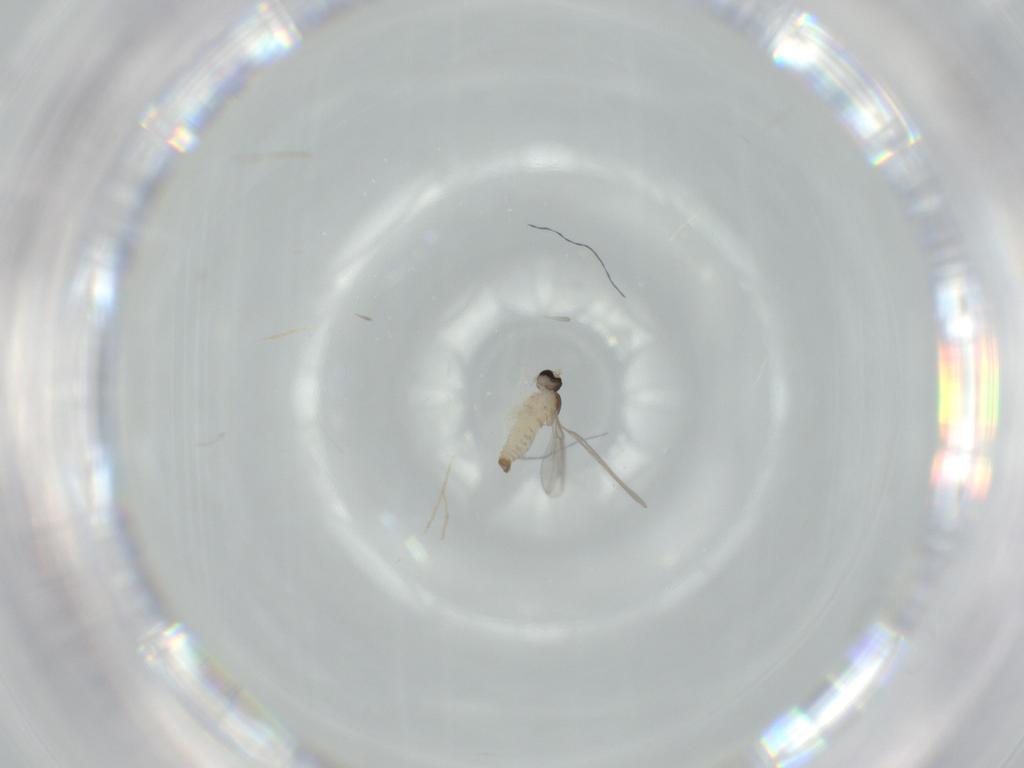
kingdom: Animalia
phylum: Arthropoda
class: Insecta
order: Diptera
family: Cecidomyiidae
